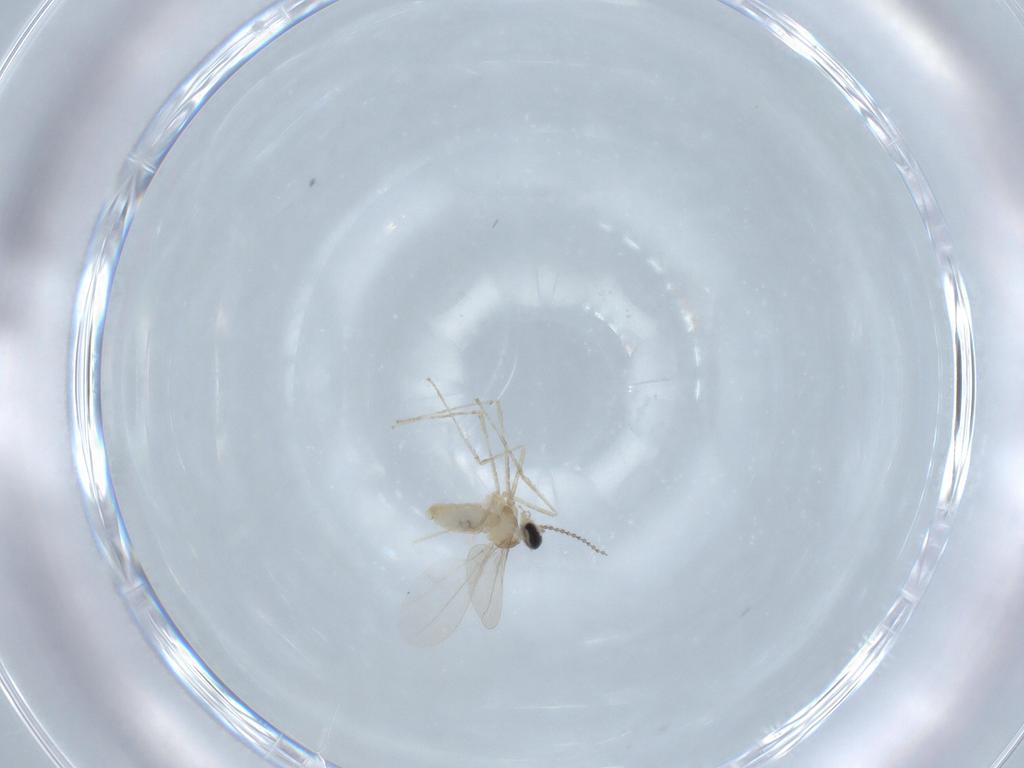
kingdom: Animalia
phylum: Arthropoda
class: Insecta
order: Diptera
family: Cecidomyiidae
